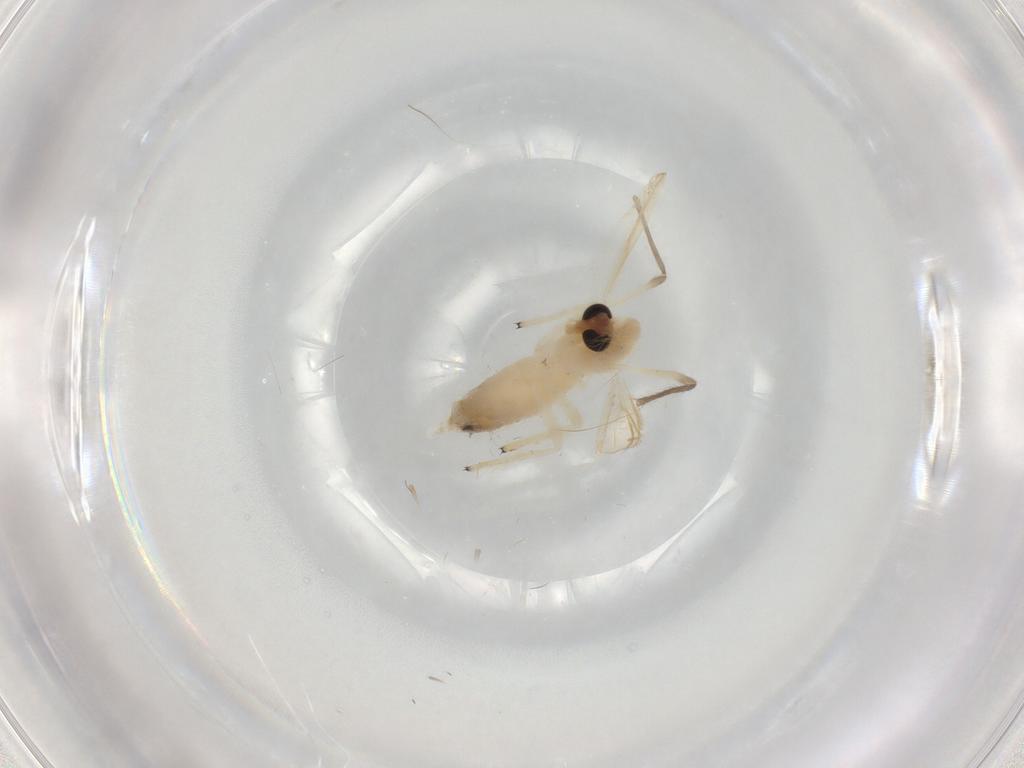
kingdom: Animalia
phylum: Arthropoda
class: Insecta
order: Diptera
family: Chironomidae
